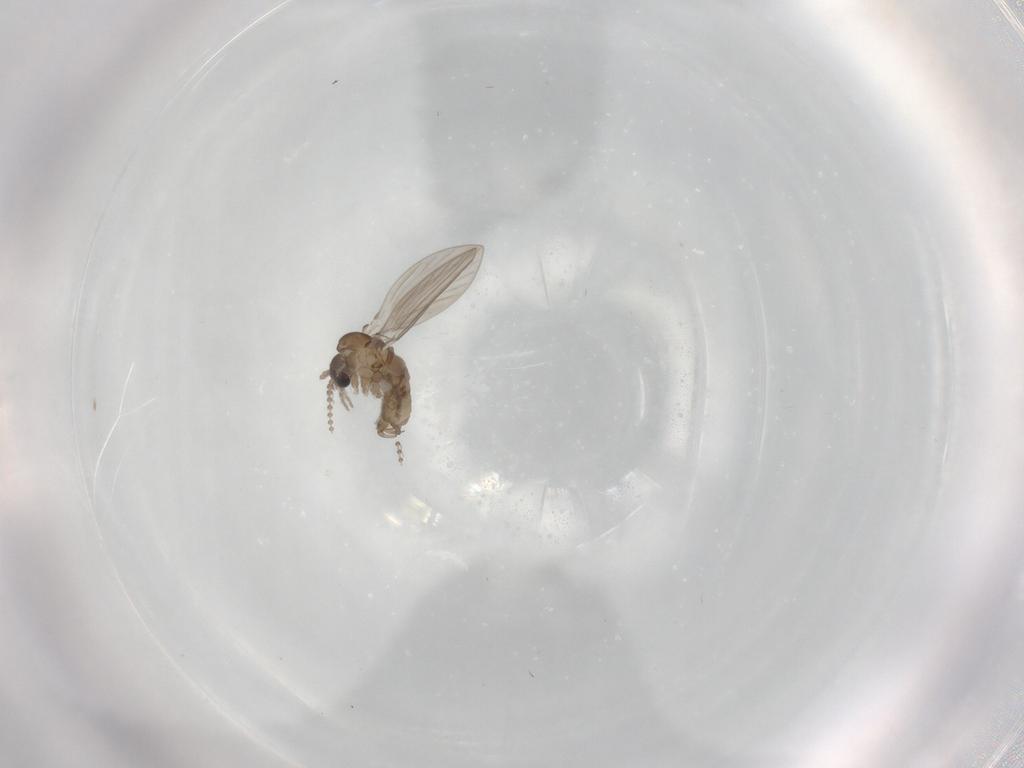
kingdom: Animalia
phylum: Arthropoda
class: Insecta
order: Diptera
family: Psychodidae
